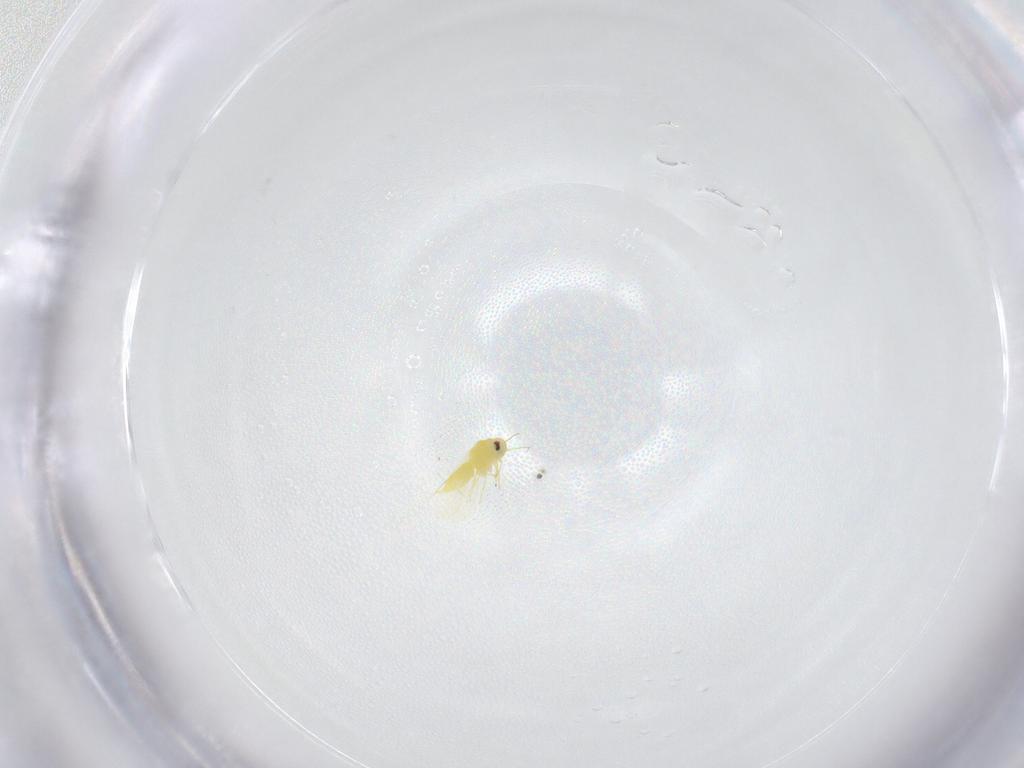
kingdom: Animalia
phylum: Arthropoda
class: Insecta
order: Hemiptera
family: Aleyrodidae
